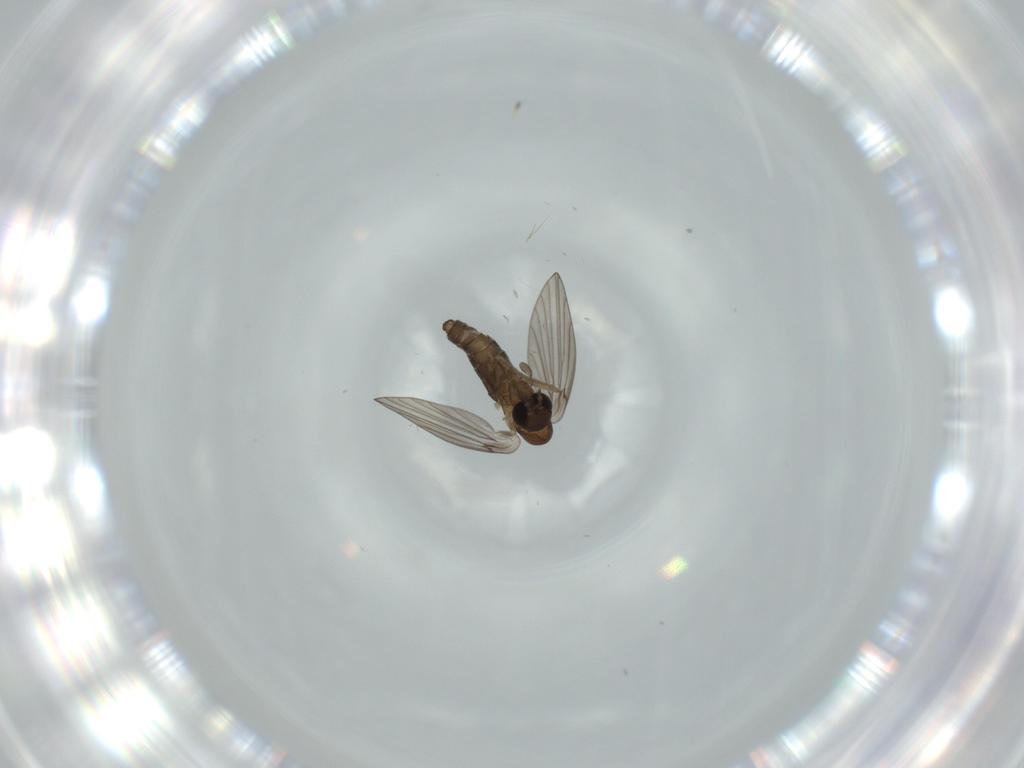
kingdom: Animalia
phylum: Arthropoda
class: Insecta
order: Diptera
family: Psychodidae
